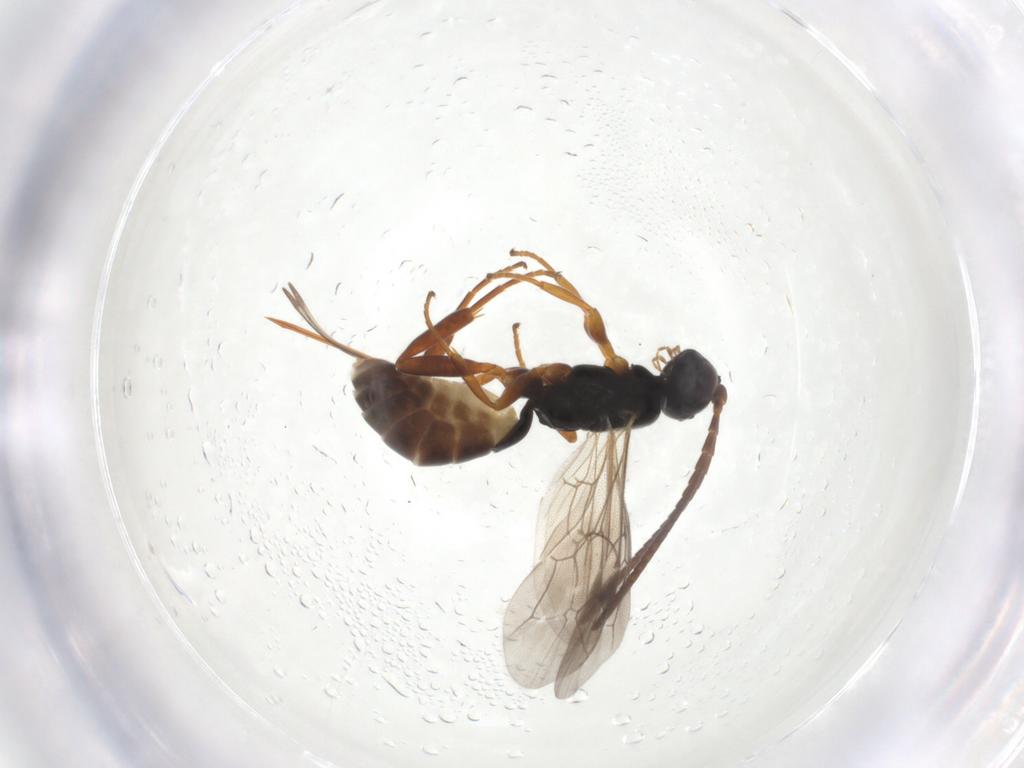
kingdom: Animalia
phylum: Arthropoda
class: Insecta
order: Hymenoptera
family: Ichneumonidae
